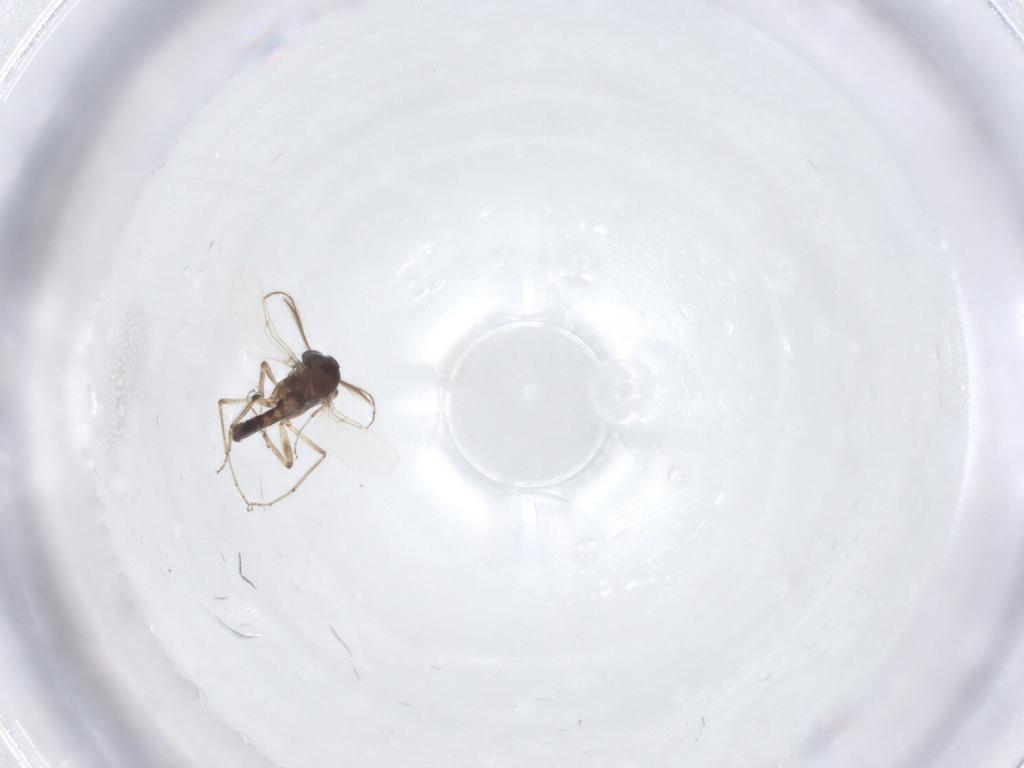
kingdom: Animalia
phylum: Arthropoda
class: Insecta
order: Diptera
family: Ceratopogonidae
